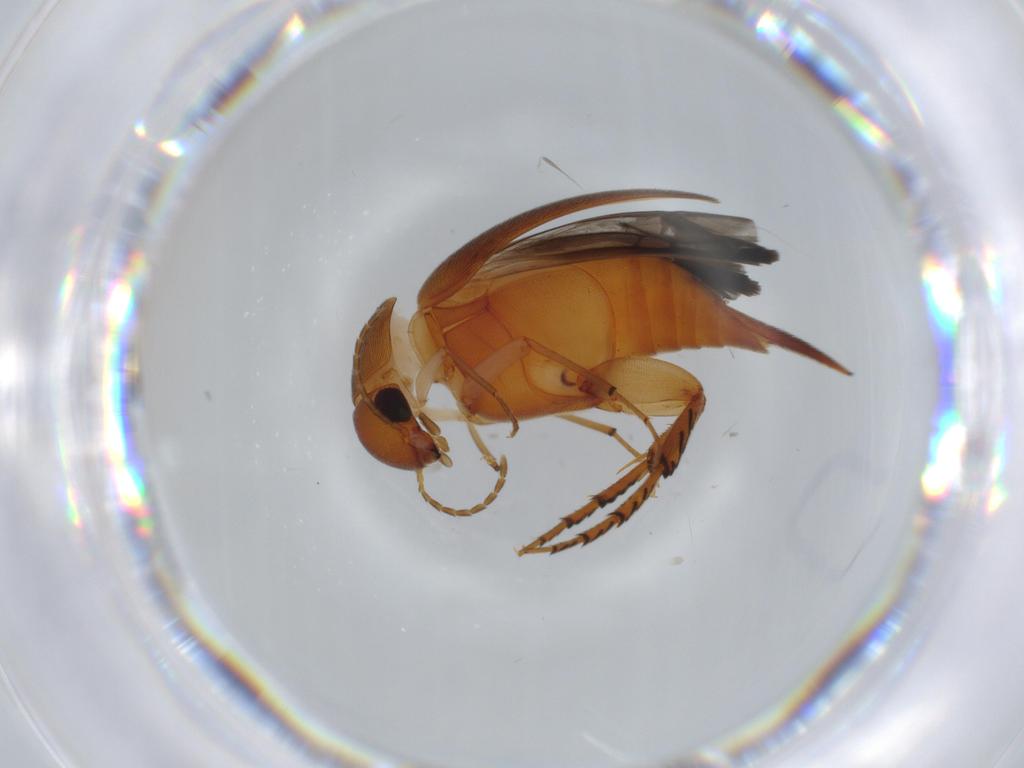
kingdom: Animalia
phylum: Arthropoda
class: Insecta
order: Coleoptera
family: Mordellidae
